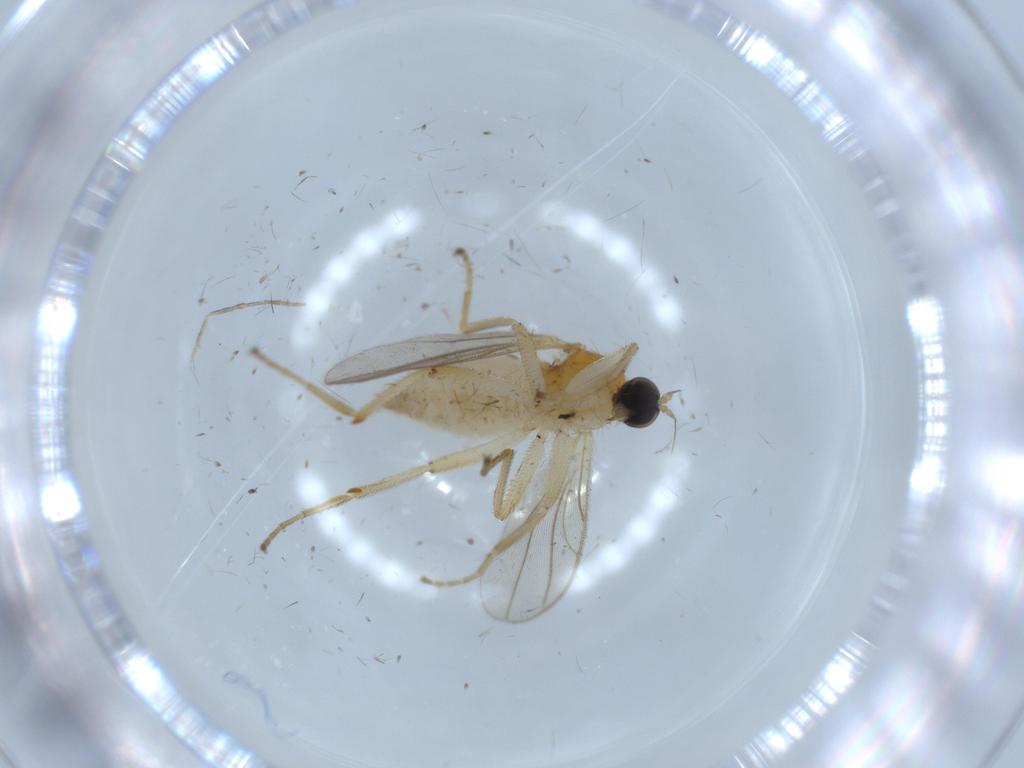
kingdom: Animalia
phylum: Arthropoda
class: Insecta
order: Diptera
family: Hybotidae
